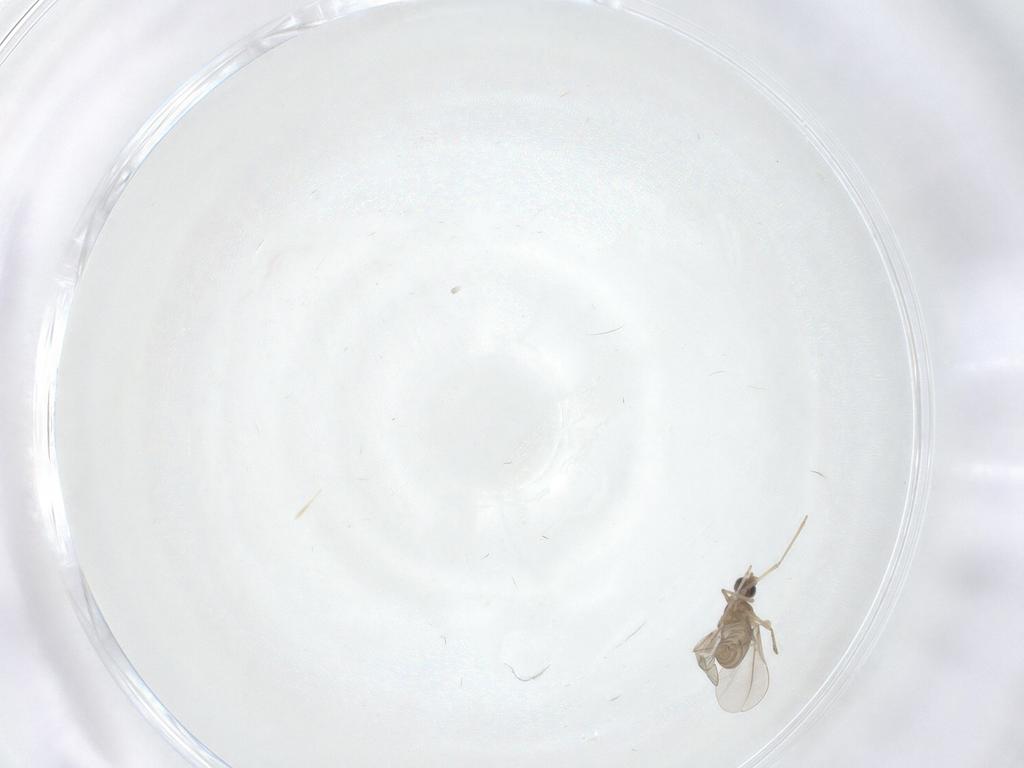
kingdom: Animalia
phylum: Arthropoda
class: Insecta
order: Diptera
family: Cecidomyiidae
